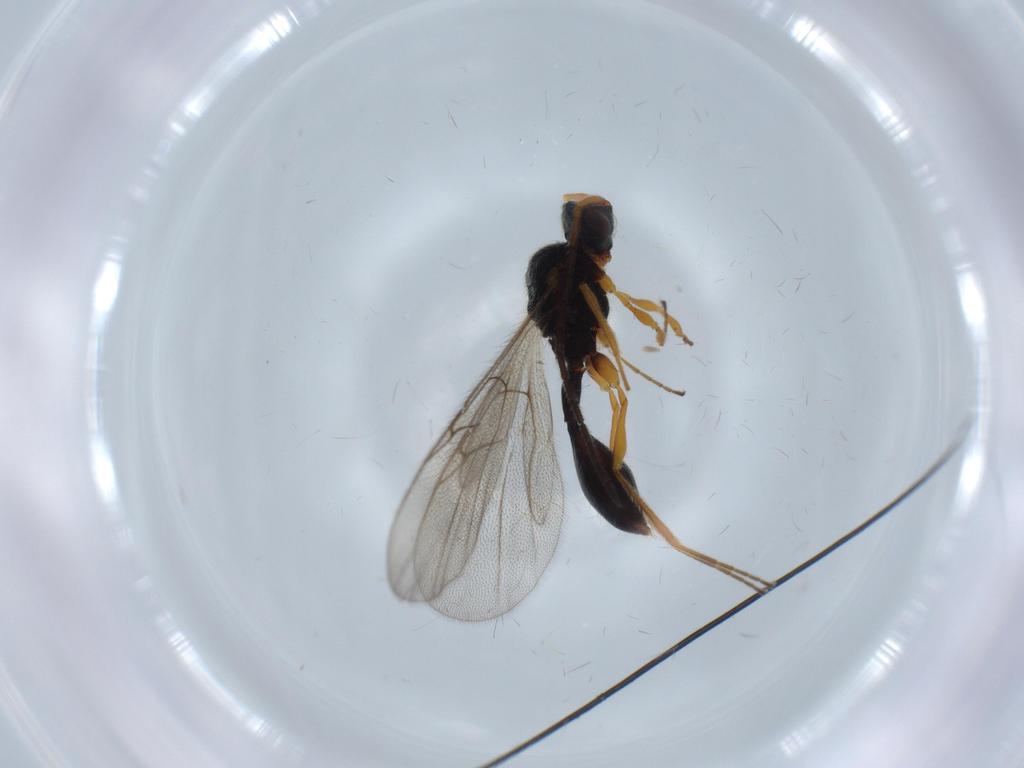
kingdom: Animalia
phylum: Arthropoda
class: Insecta
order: Hymenoptera
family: Diapriidae
